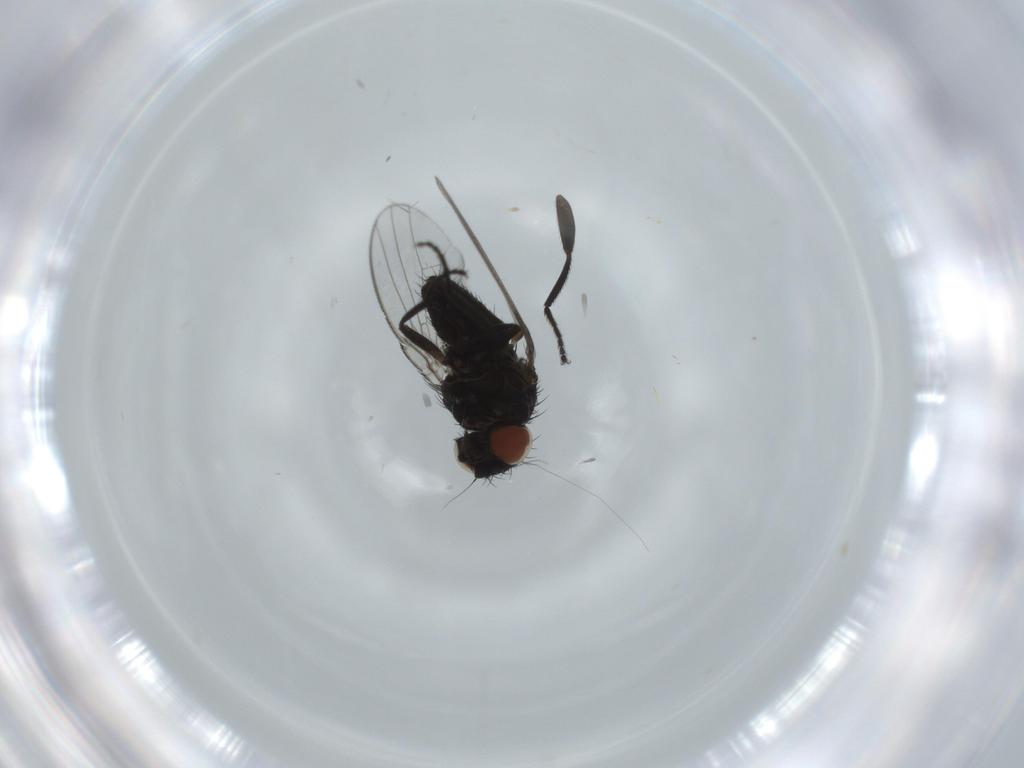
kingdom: Animalia
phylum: Arthropoda
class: Insecta
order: Diptera
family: Milichiidae
